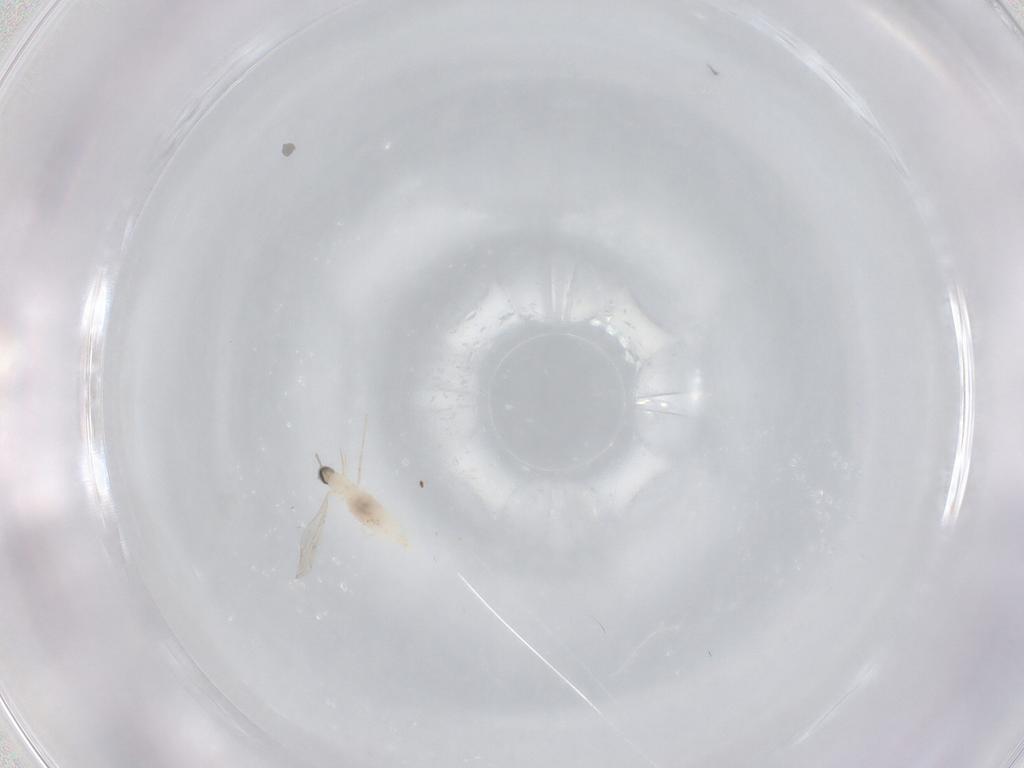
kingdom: Animalia
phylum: Arthropoda
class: Insecta
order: Diptera
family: Cecidomyiidae
